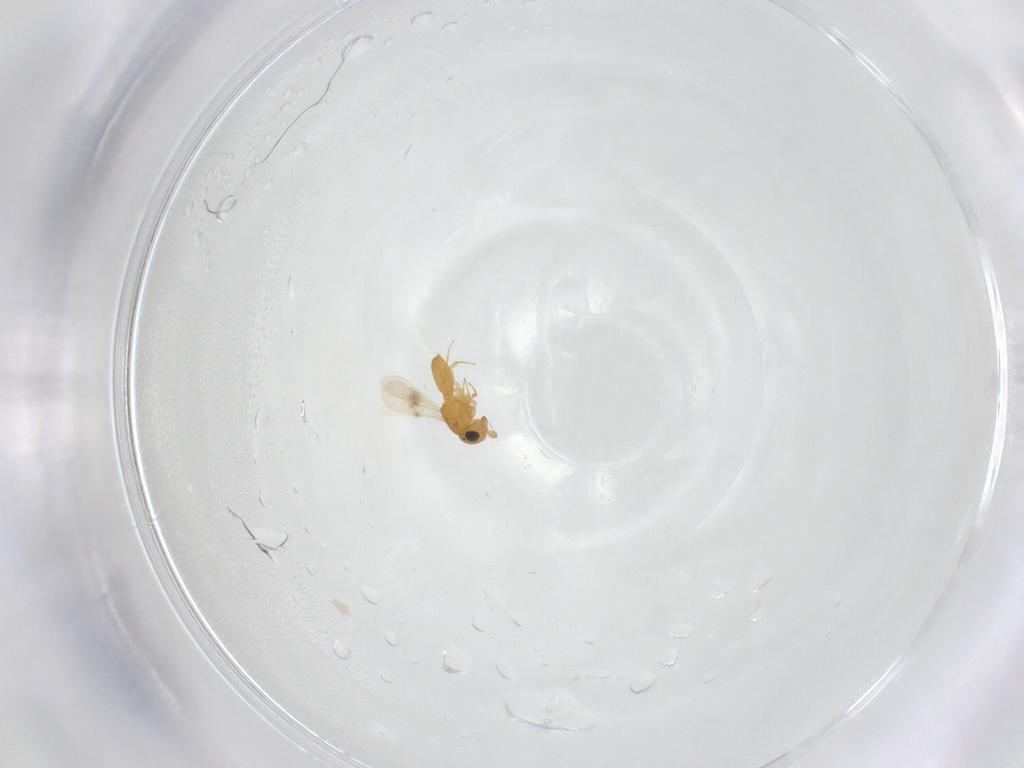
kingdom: Animalia
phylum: Arthropoda
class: Insecta
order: Hymenoptera
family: Scelionidae
